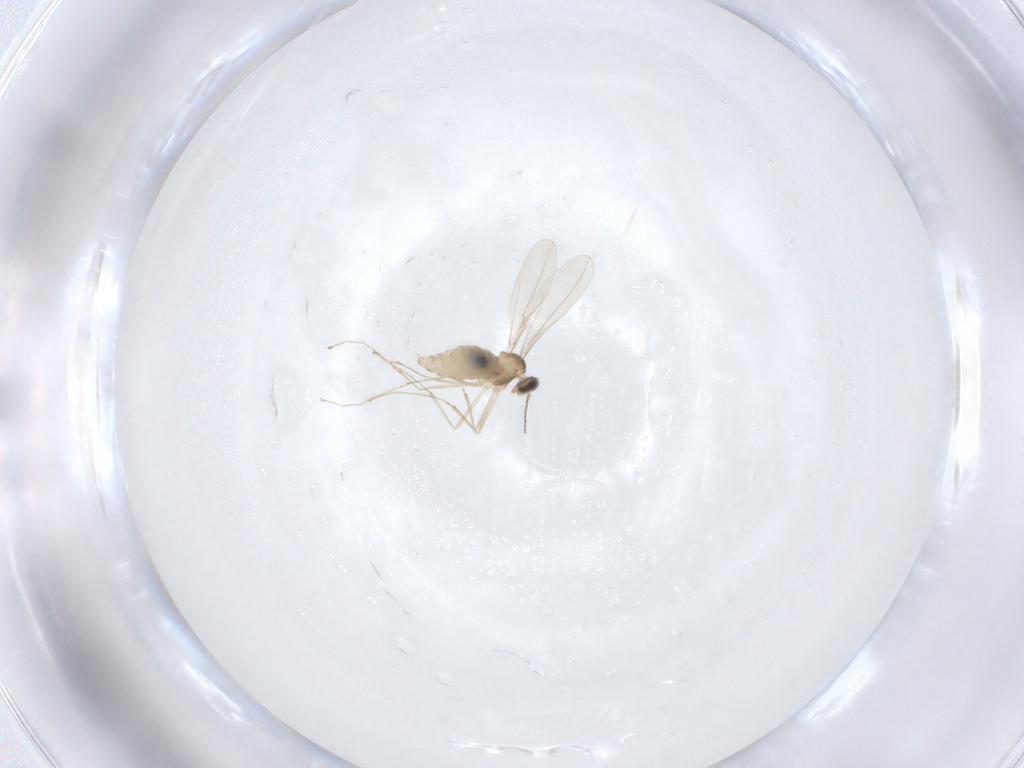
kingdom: Animalia
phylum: Arthropoda
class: Insecta
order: Diptera
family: Cecidomyiidae
